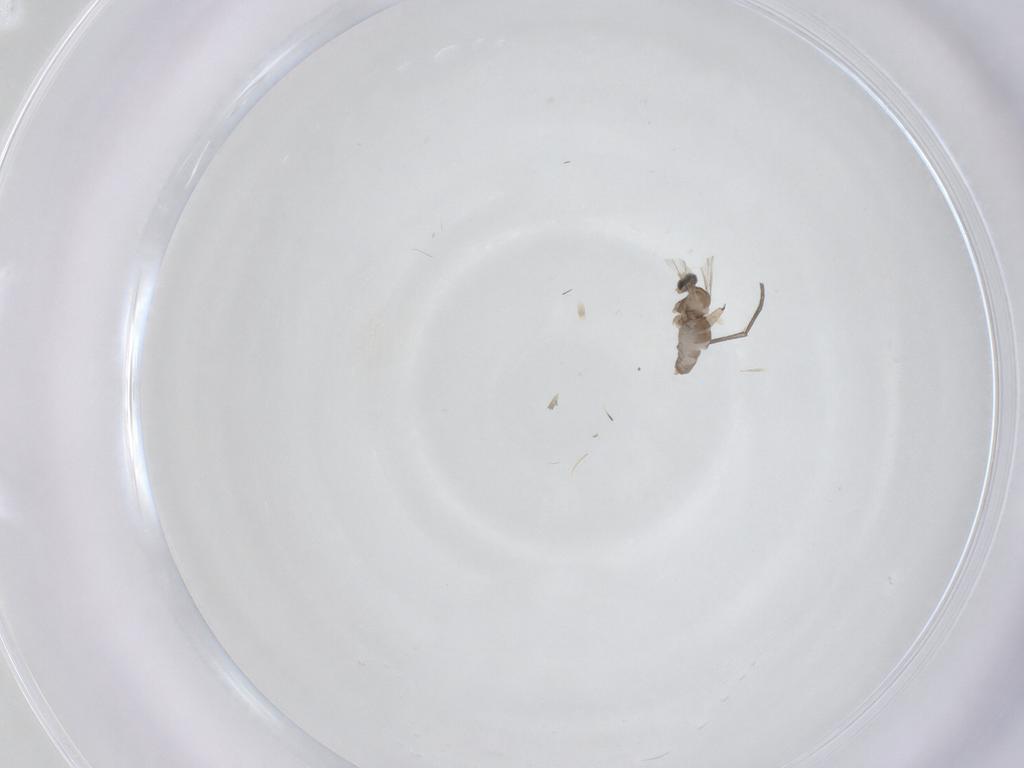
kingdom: Animalia
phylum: Arthropoda
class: Insecta
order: Diptera
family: Cecidomyiidae
